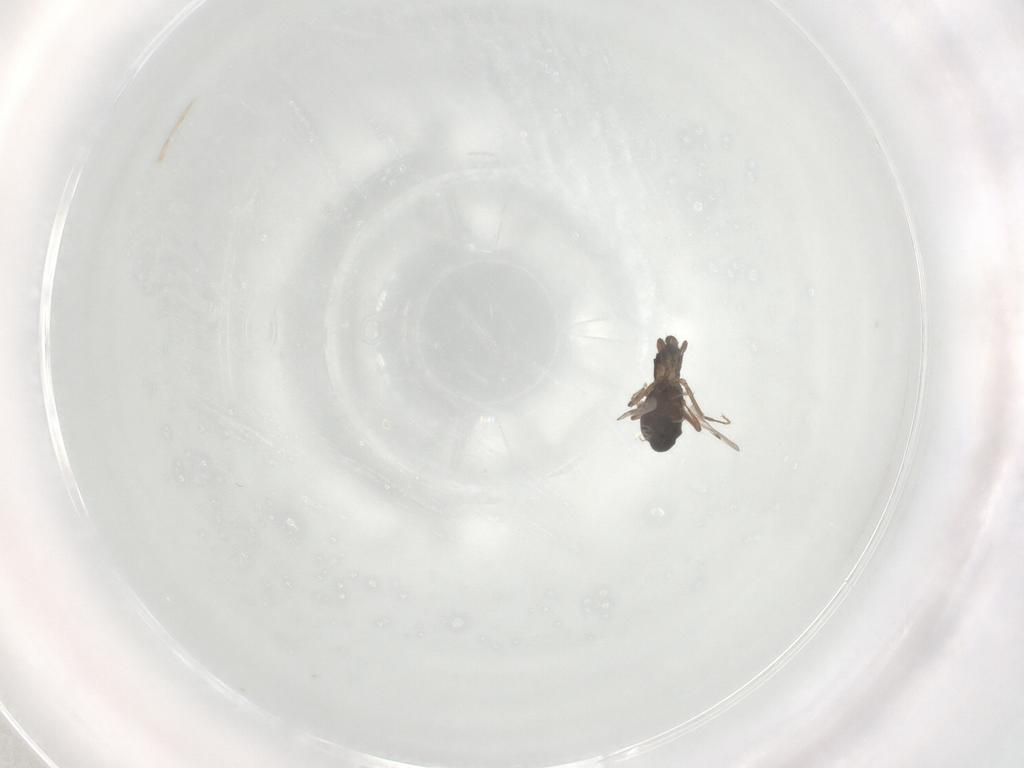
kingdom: Animalia
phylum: Arthropoda
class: Insecta
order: Diptera
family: Ceratopogonidae
